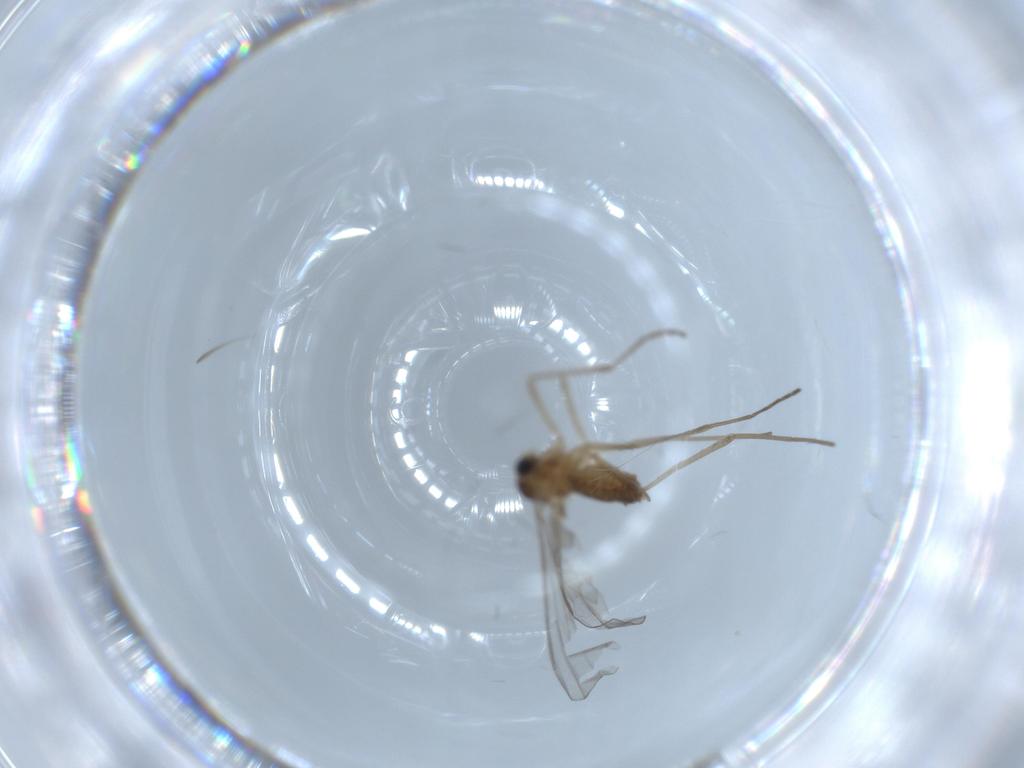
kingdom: Animalia
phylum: Arthropoda
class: Insecta
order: Diptera
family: Cecidomyiidae
